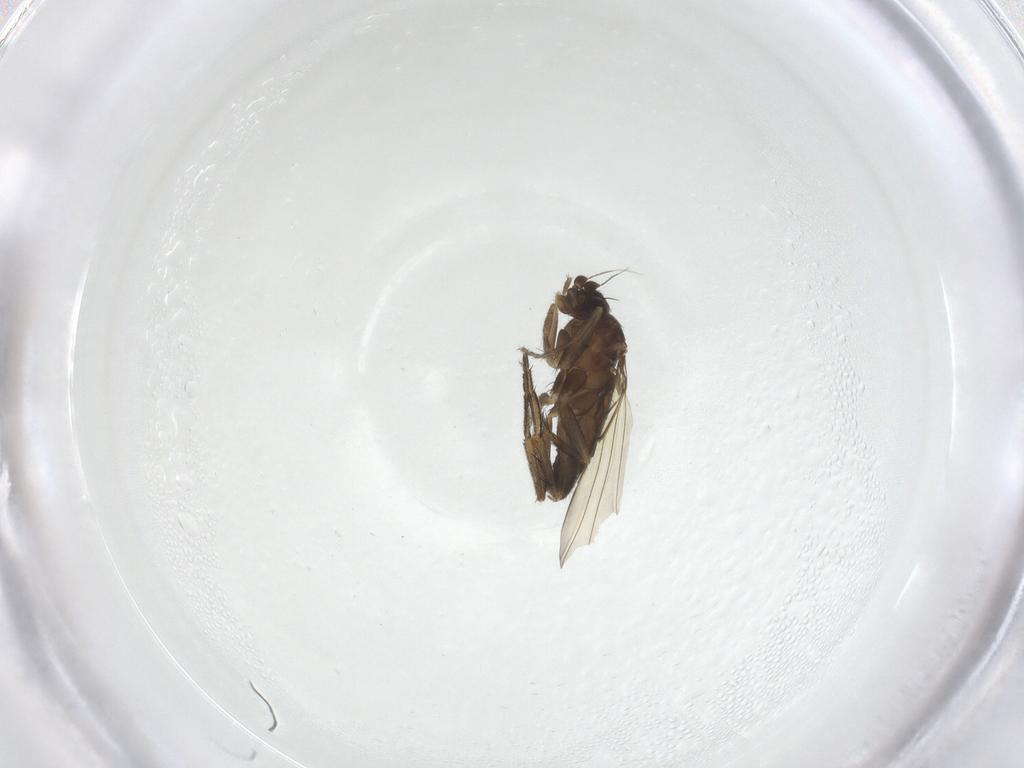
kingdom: Animalia
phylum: Arthropoda
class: Insecta
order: Diptera
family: Phoridae
